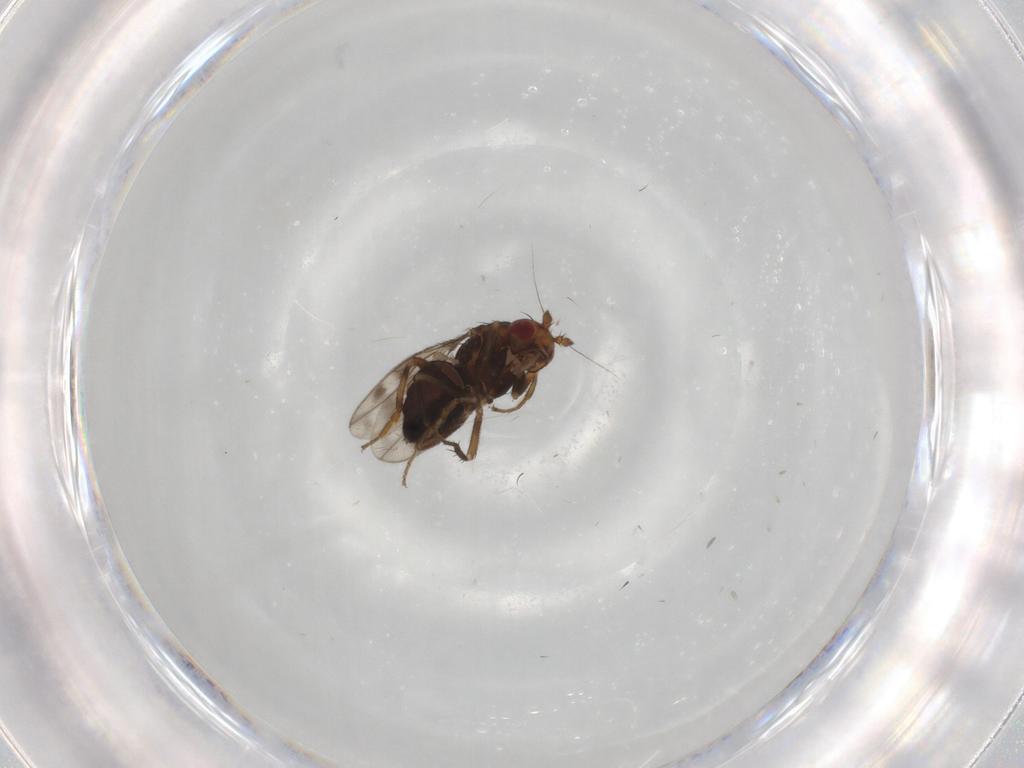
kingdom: Animalia
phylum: Arthropoda
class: Insecta
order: Diptera
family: Sphaeroceridae
